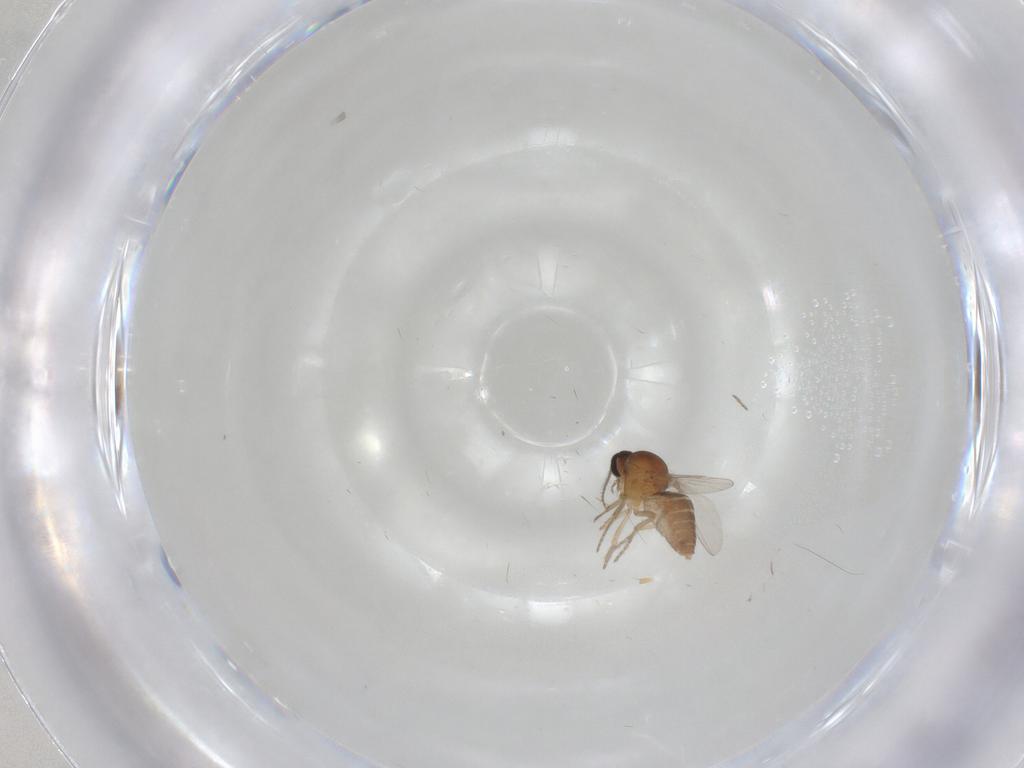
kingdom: Animalia
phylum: Arthropoda
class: Insecta
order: Diptera
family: Ceratopogonidae
